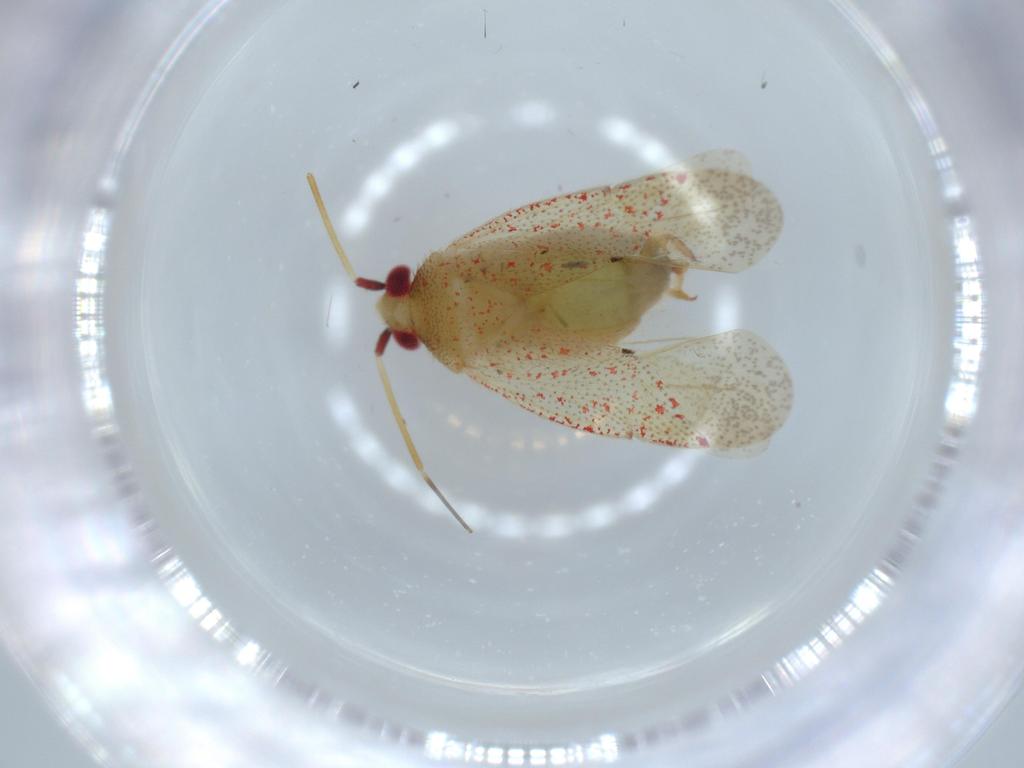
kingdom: Animalia
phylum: Arthropoda
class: Insecta
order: Hemiptera
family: Miridae
